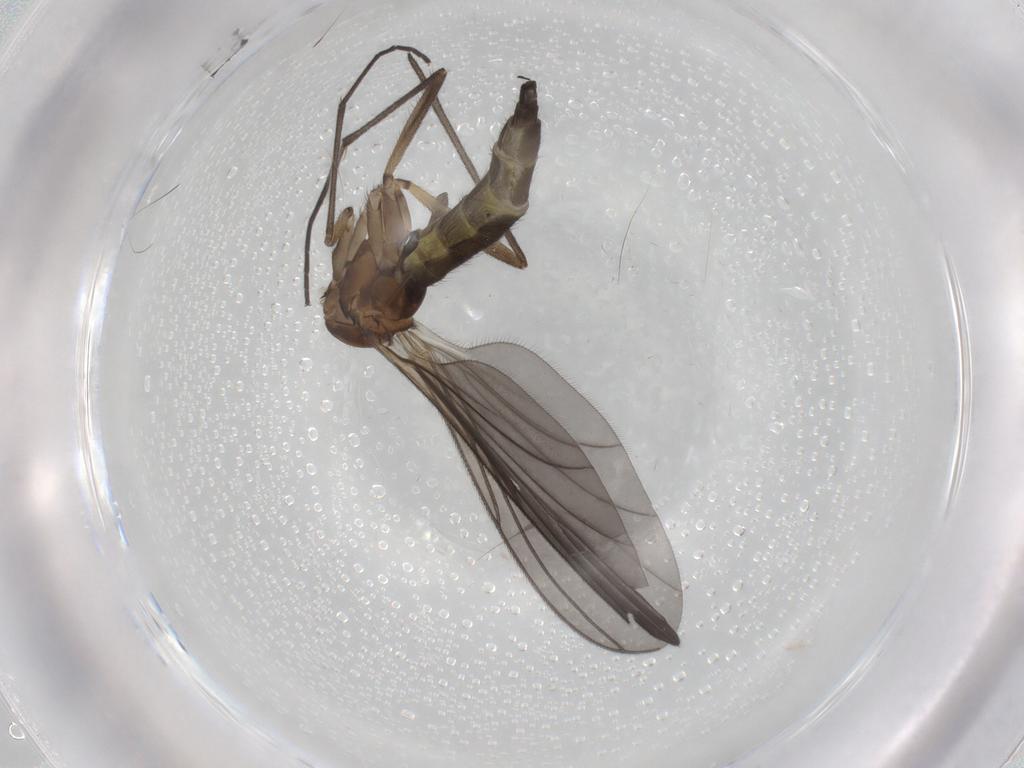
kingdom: Animalia
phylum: Arthropoda
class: Insecta
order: Diptera
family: Sciaridae
